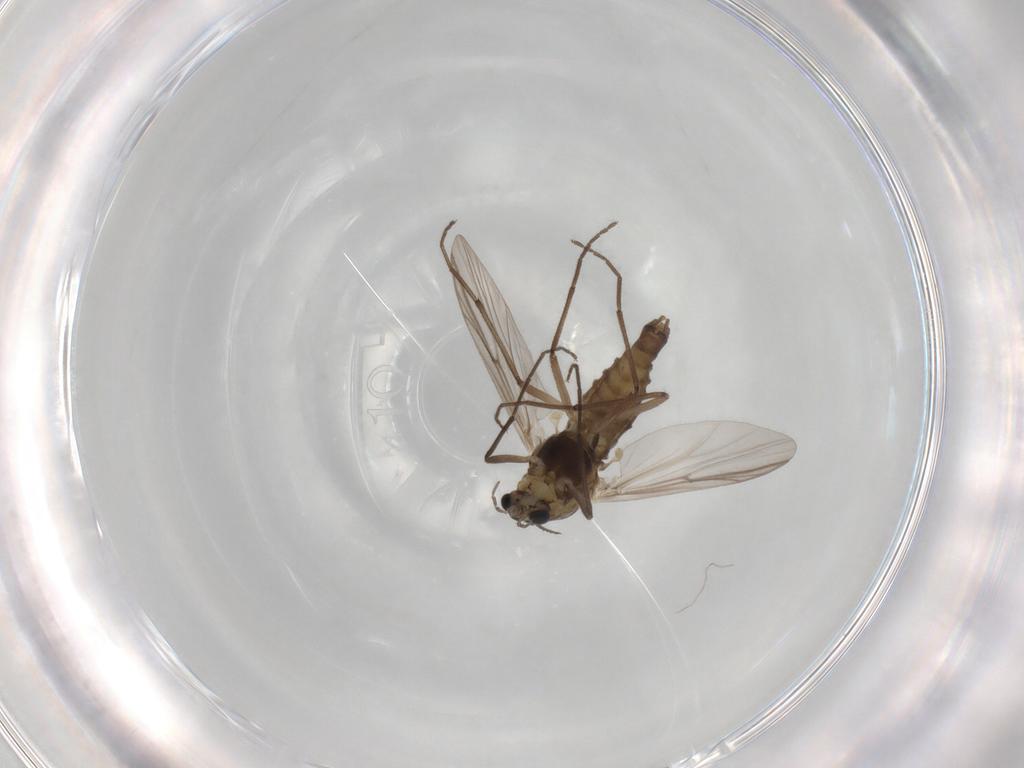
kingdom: Animalia
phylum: Arthropoda
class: Insecta
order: Diptera
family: Chironomidae
